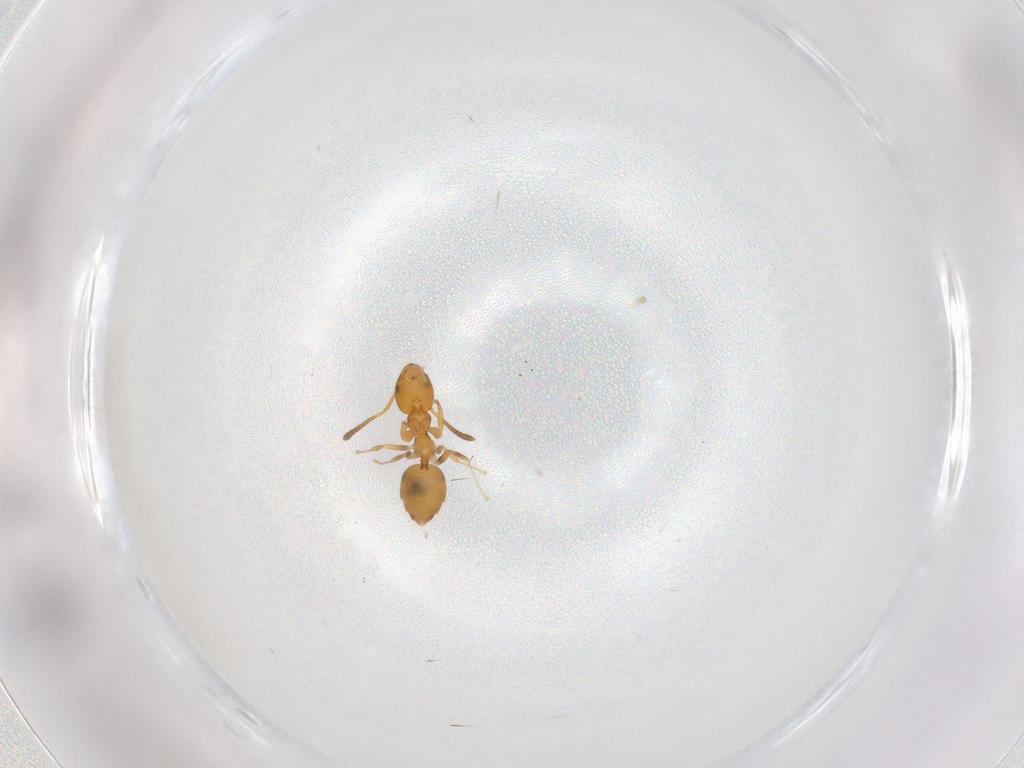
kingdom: Animalia
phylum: Arthropoda
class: Insecta
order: Hymenoptera
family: Formicidae
